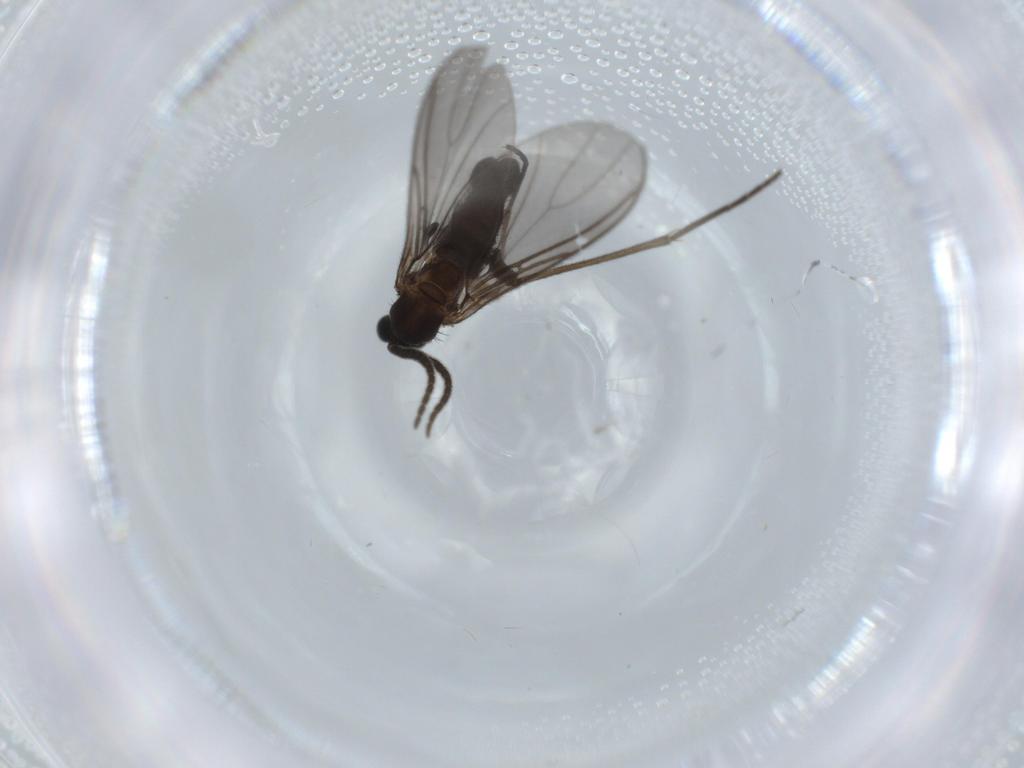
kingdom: Animalia
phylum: Arthropoda
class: Insecta
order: Diptera
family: Sciaridae
